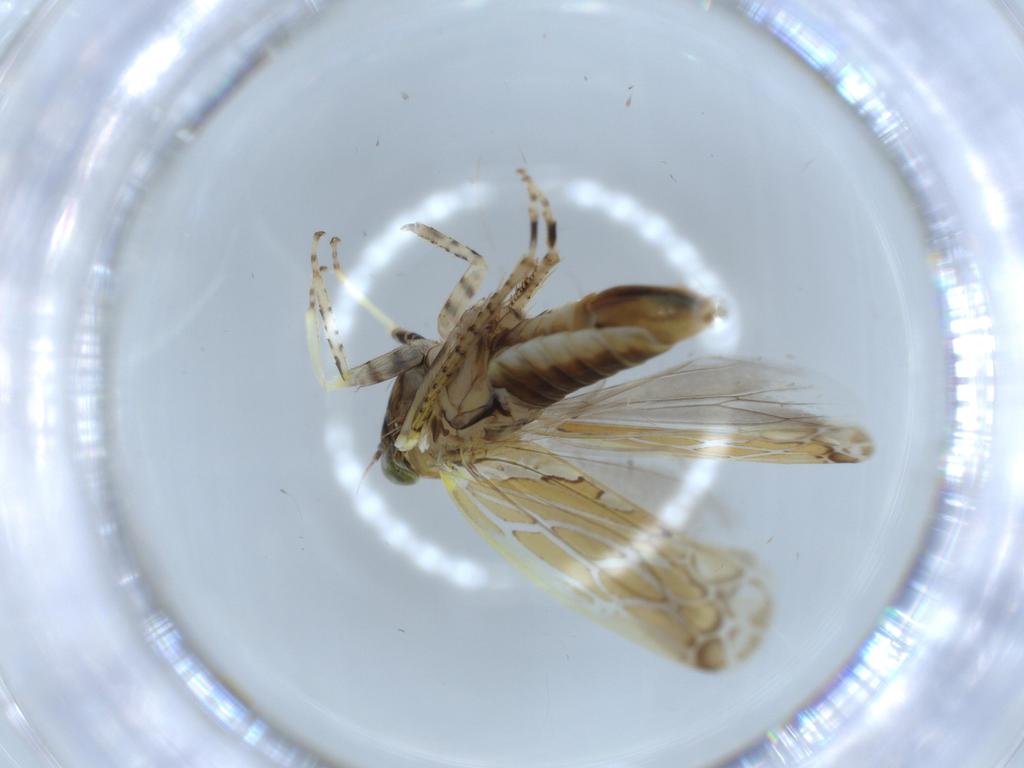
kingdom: Animalia
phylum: Arthropoda
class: Insecta
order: Hemiptera
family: Cicadellidae
